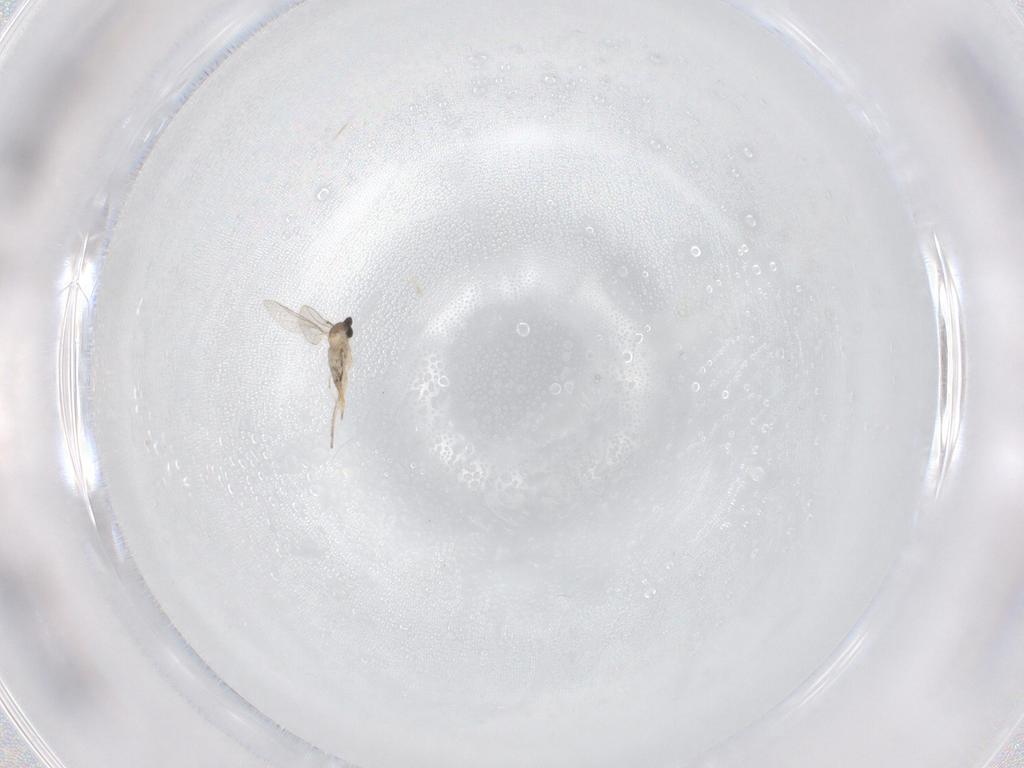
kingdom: Animalia
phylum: Arthropoda
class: Insecta
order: Diptera
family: Cecidomyiidae
